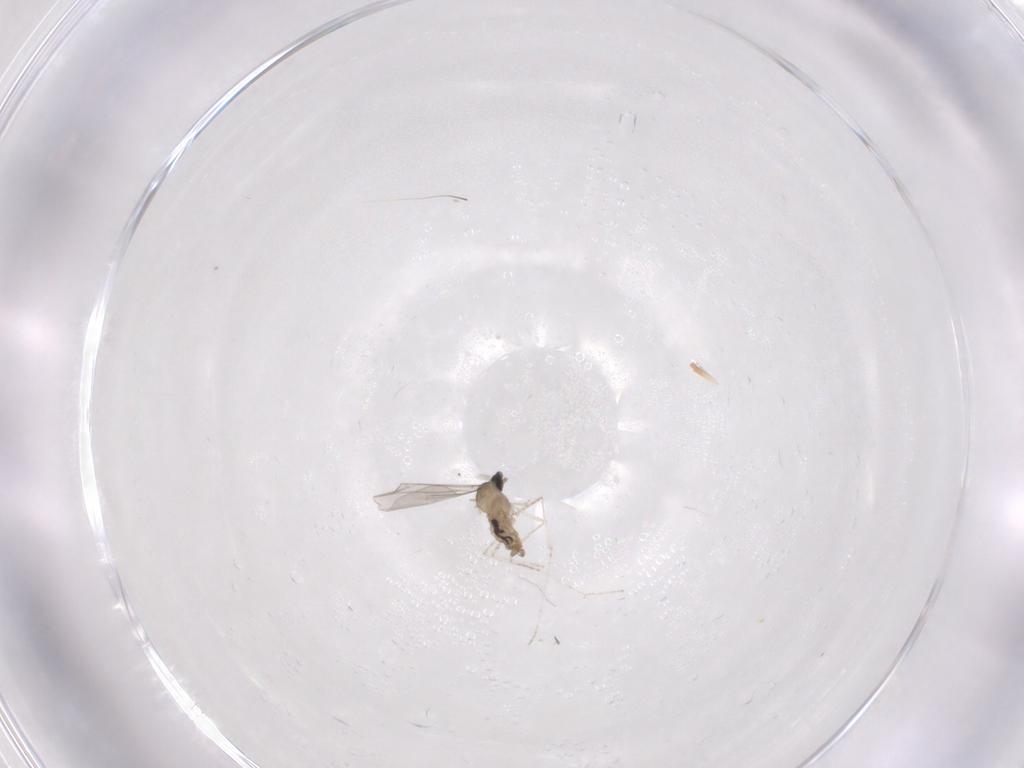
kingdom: Animalia
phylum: Arthropoda
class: Insecta
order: Diptera
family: Cecidomyiidae
